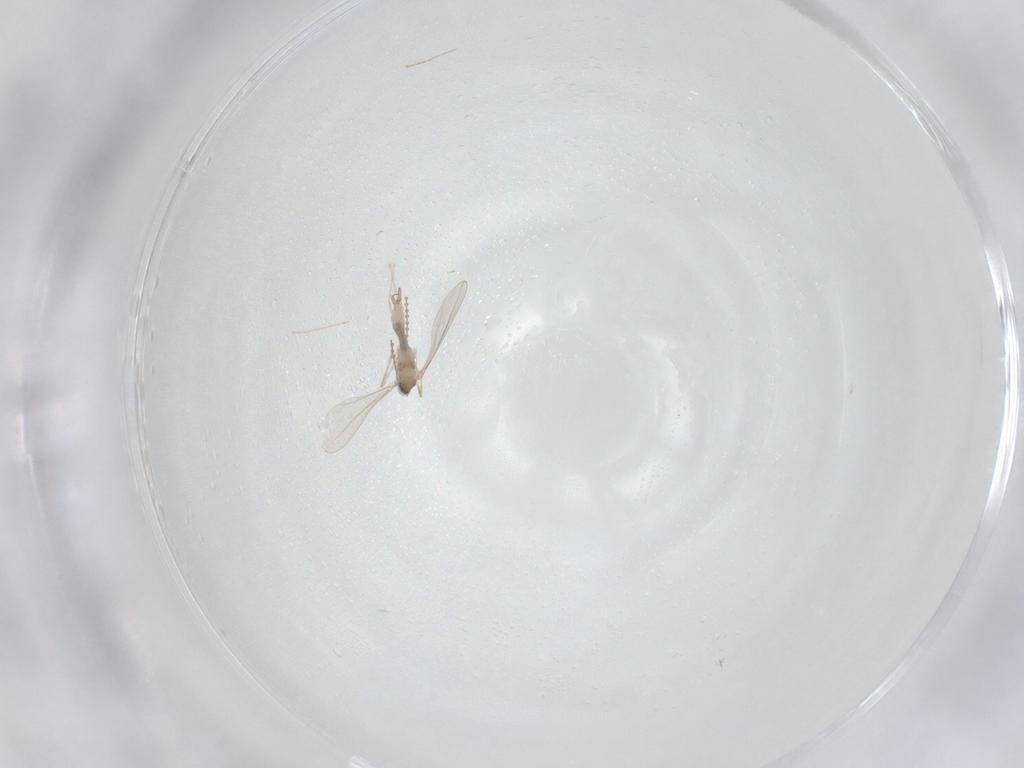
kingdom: Animalia
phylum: Arthropoda
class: Insecta
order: Diptera
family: Cecidomyiidae
